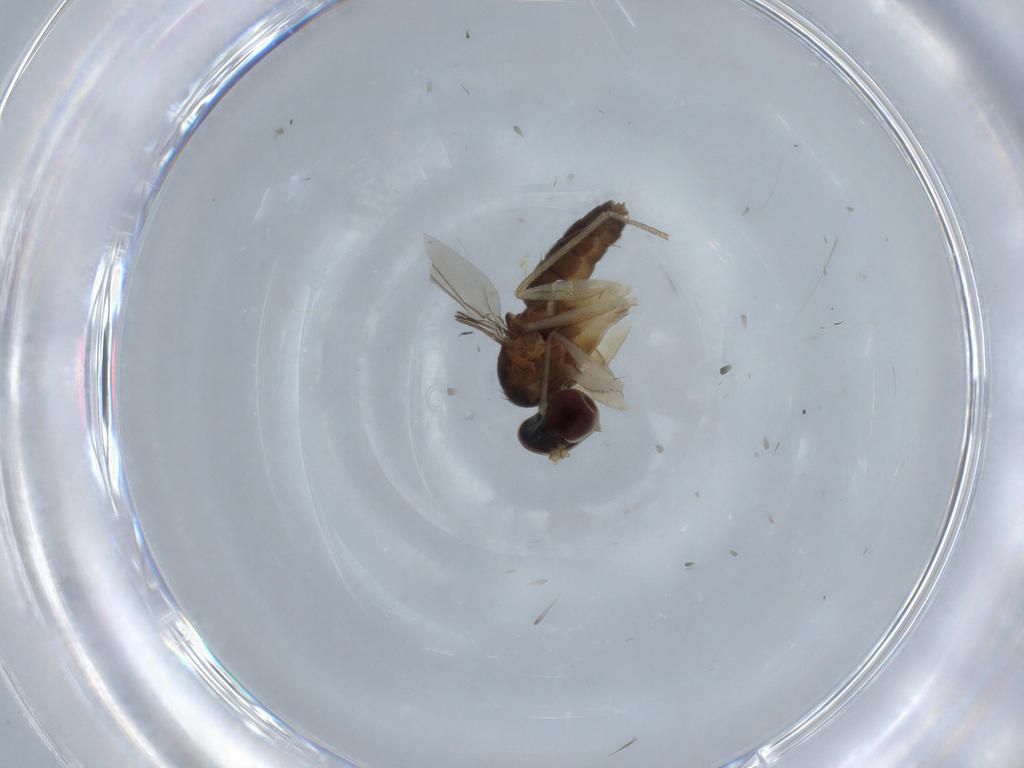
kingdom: Animalia
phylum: Arthropoda
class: Insecta
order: Diptera
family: Dolichopodidae
